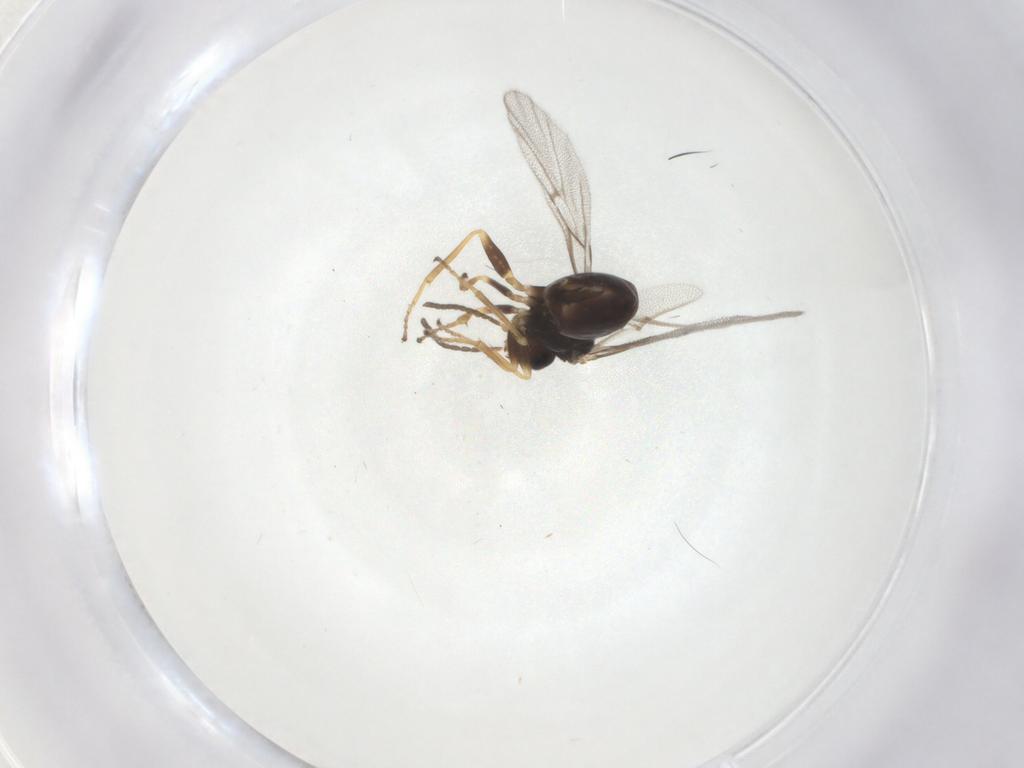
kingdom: Animalia
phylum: Arthropoda
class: Insecta
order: Hymenoptera
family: Cynipidae
